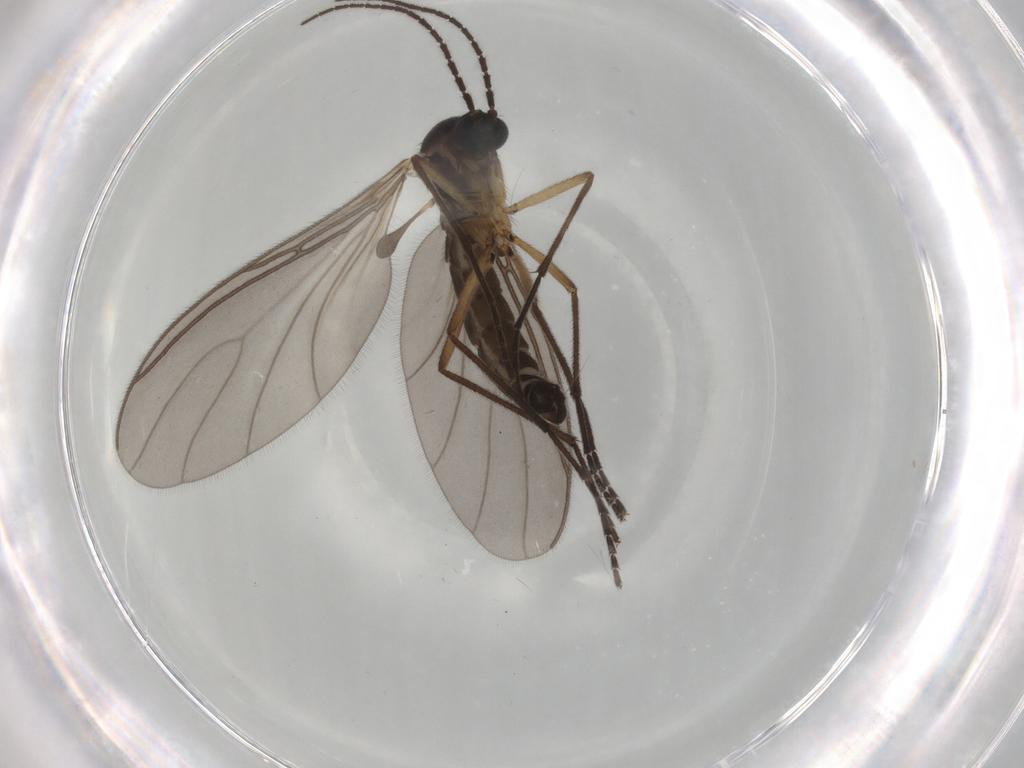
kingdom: Animalia
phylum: Arthropoda
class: Insecta
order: Diptera
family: Sciaridae
